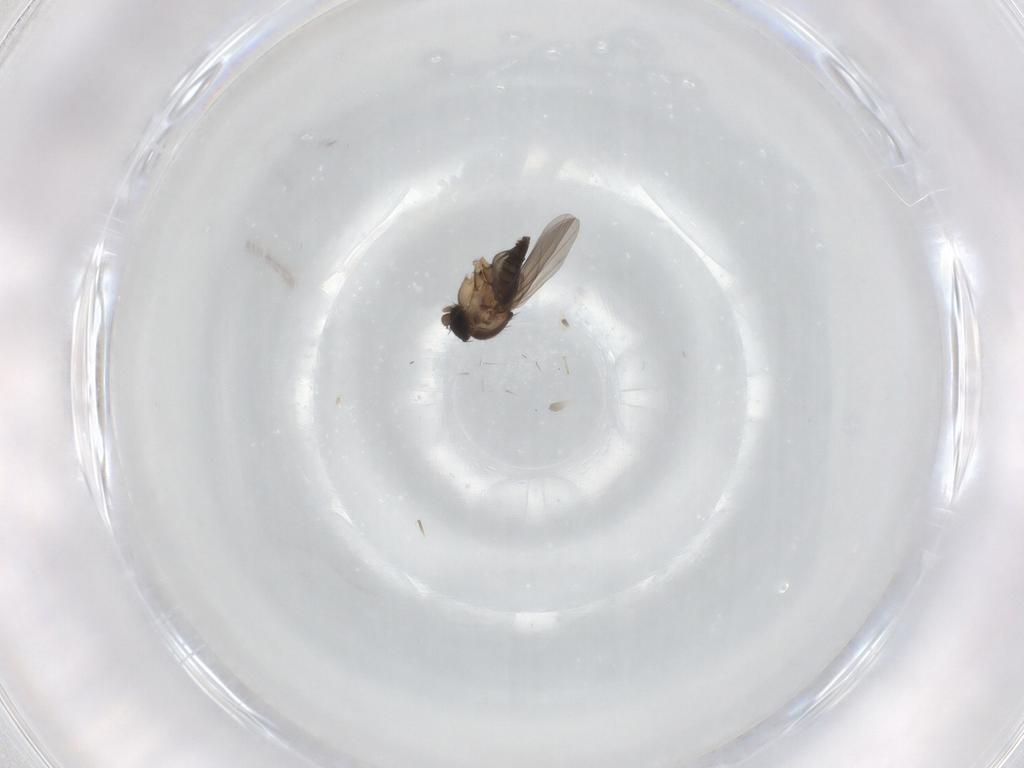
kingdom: Animalia
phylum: Arthropoda
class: Insecta
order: Diptera
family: Phoridae
